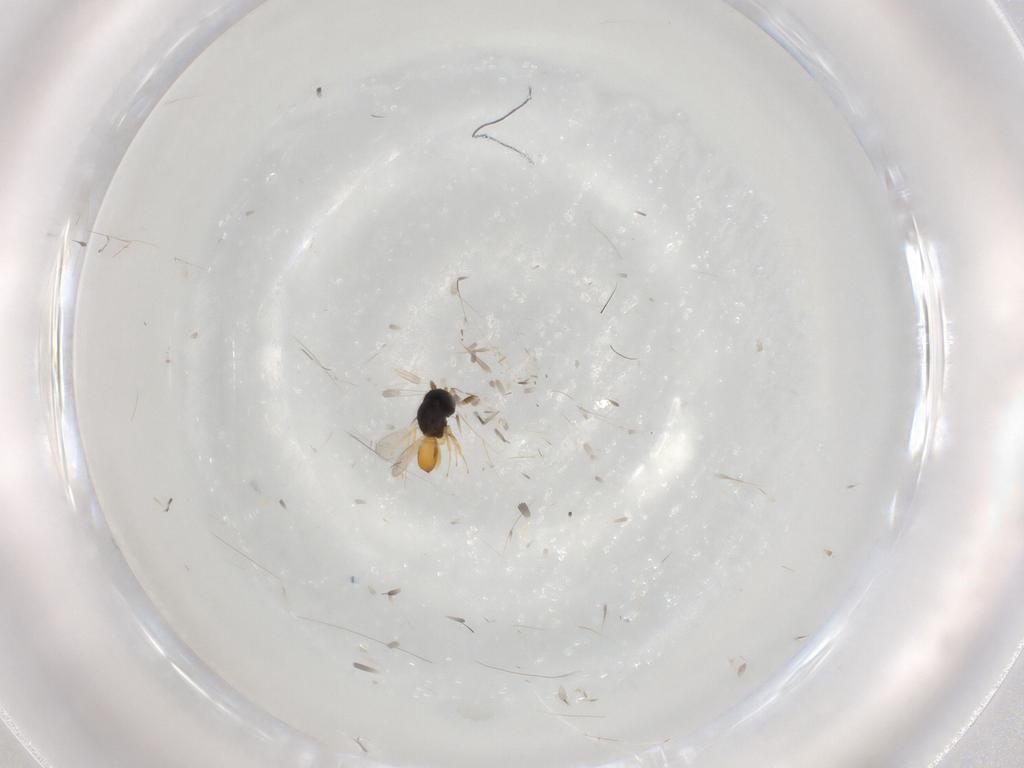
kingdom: Animalia
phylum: Arthropoda
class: Insecta
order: Hymenoptera
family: Scelionidae
